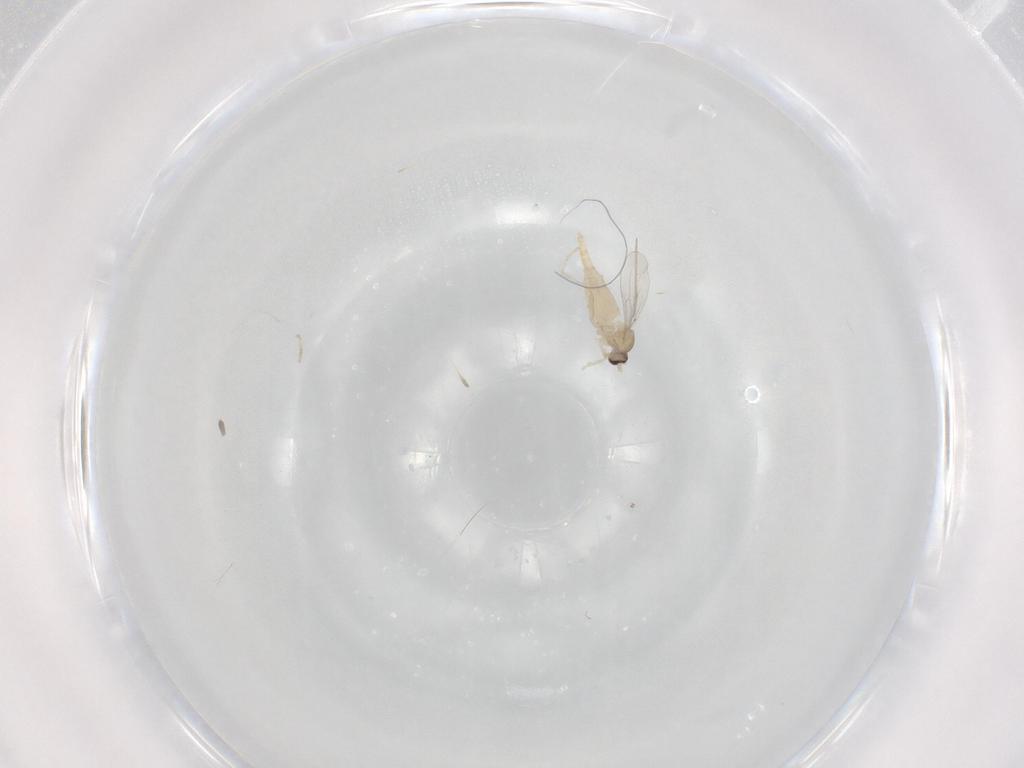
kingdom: Animalia
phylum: Arthropoda
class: Insecta
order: Diptera
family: Cecidomyiidae
